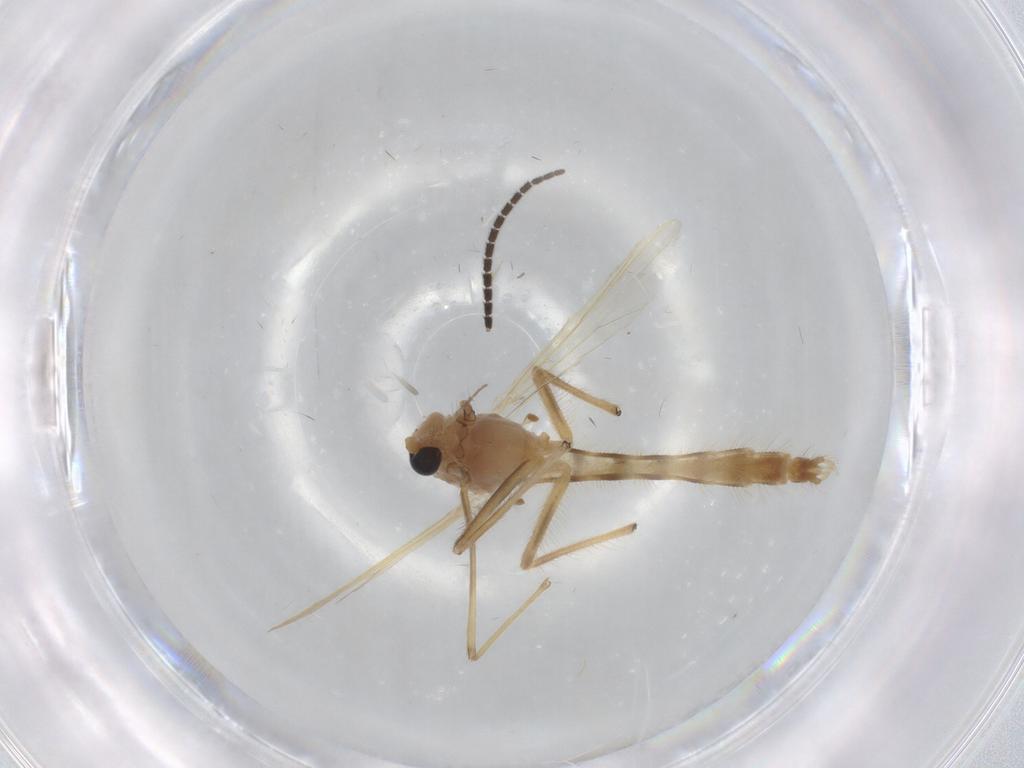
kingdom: Animalia
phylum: Arthropoda
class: Insecta
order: Diptera
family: Chironomidae
